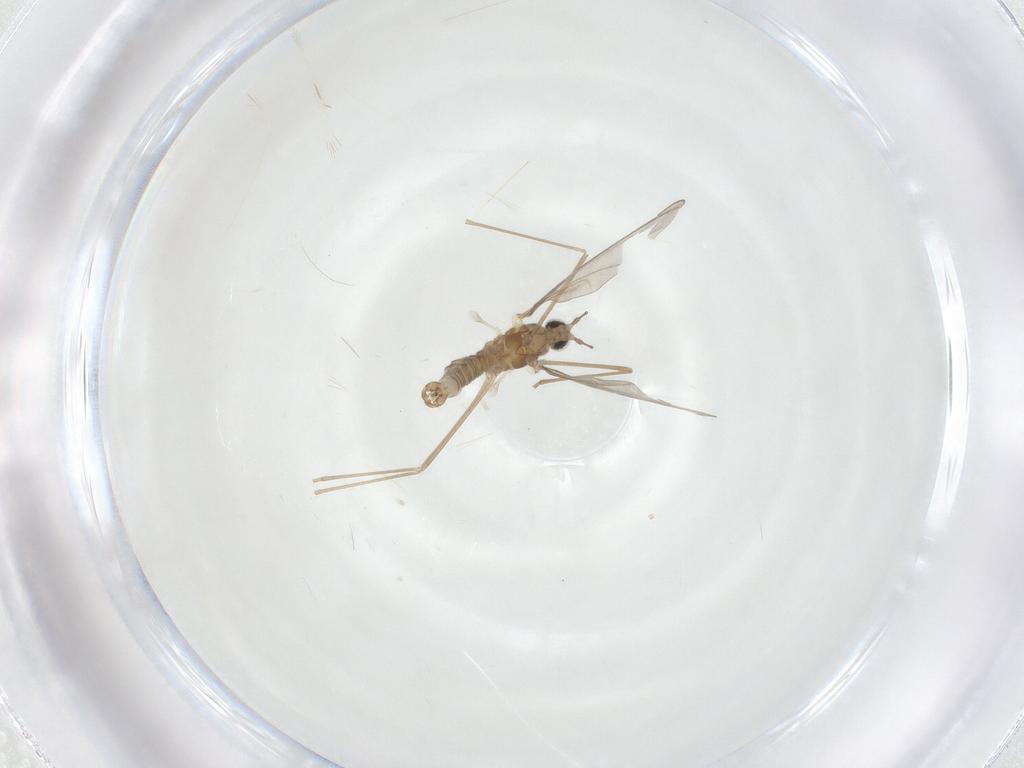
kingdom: Animalia
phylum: Arthropoda
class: Insecta
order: Diptera
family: Cecidomyiidae
